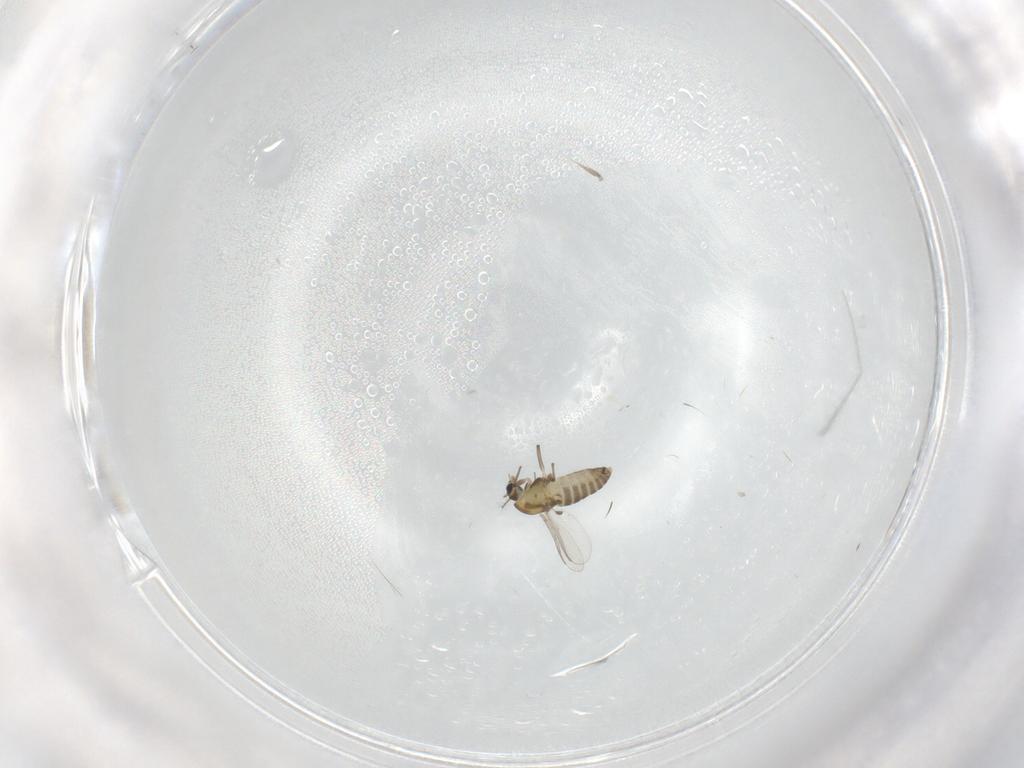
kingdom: Animalia
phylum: Arthropoda
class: Insecta
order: Diptera
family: Chironomidae
